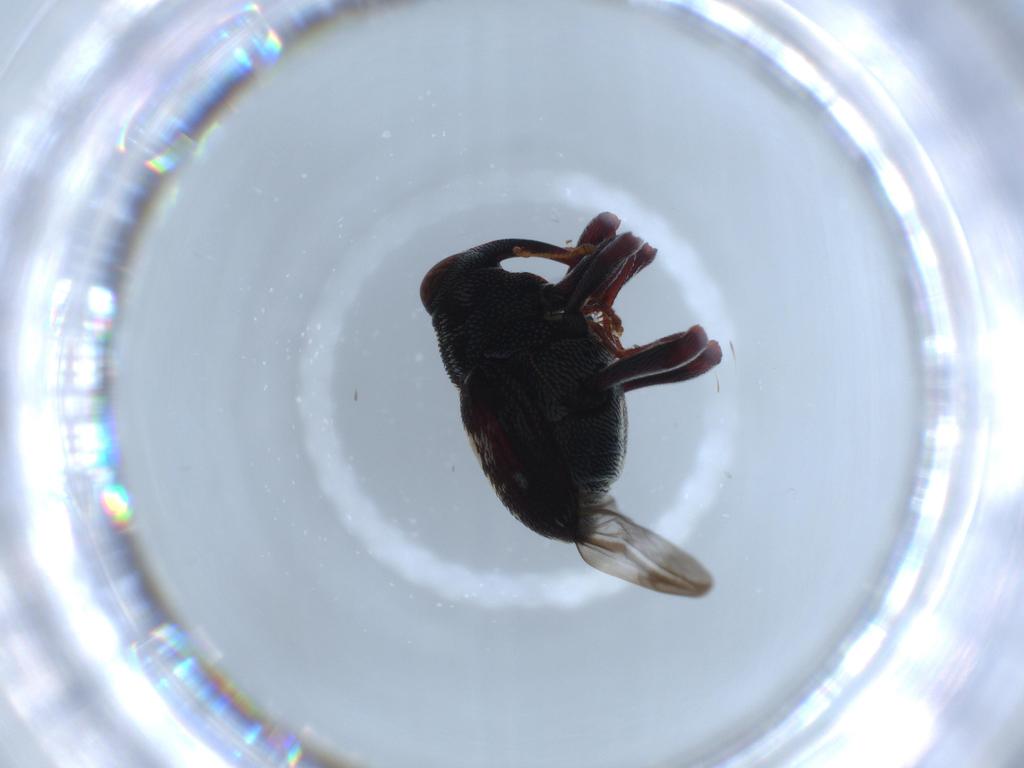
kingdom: Animalia
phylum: Arthropoda
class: Insecta
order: Coleoptera
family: Curculionidae
